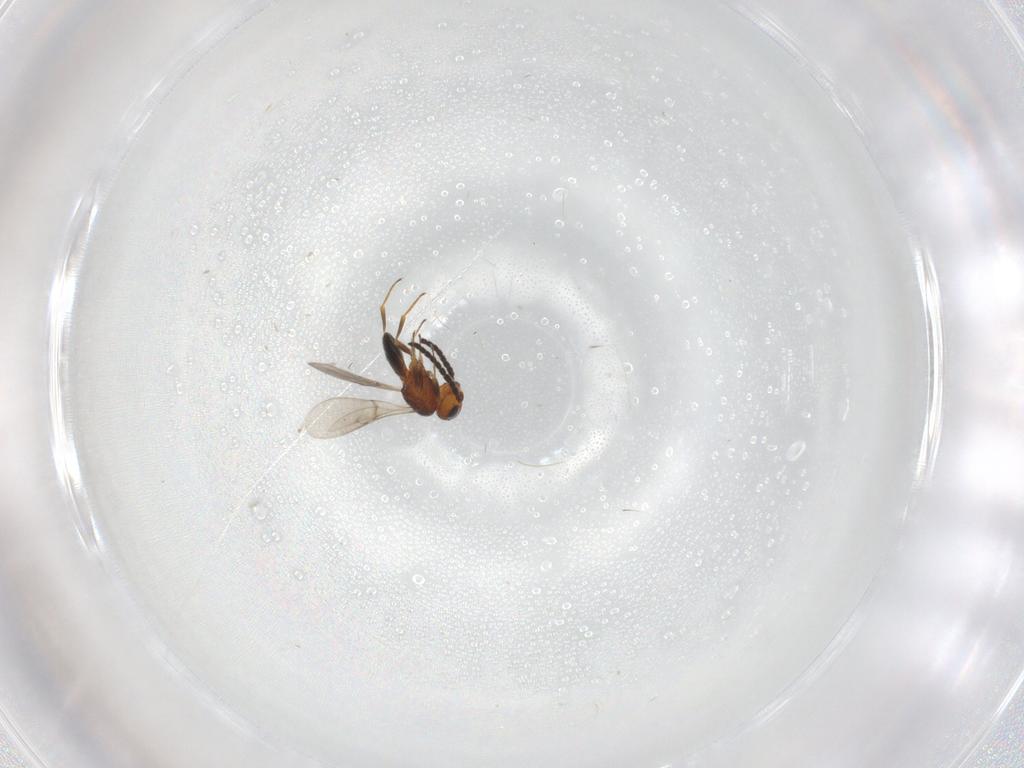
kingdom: Animalia
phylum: Arthropoda
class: Insecta
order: Hymenoptera
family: Scelionidae
